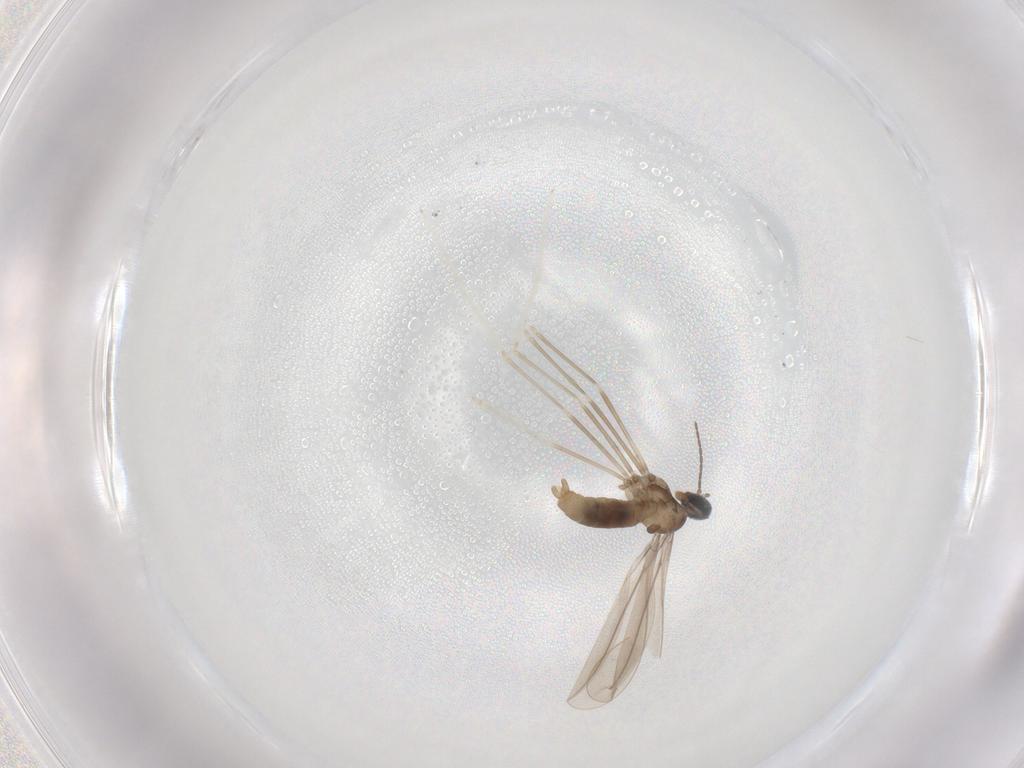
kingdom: Animalia
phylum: Arthropoda
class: Insecta
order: Diptera
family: Cecidomyiidae
